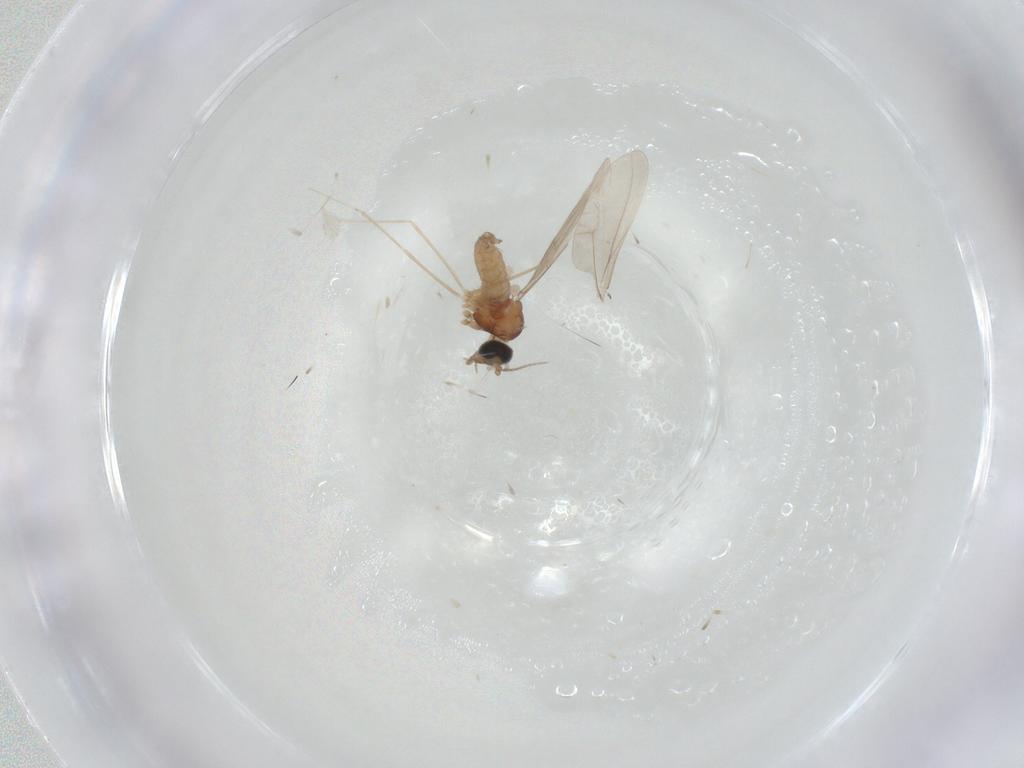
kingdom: Animalia
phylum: Arthropoda
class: Insecta
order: Diptera
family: Cecidomyiidae
